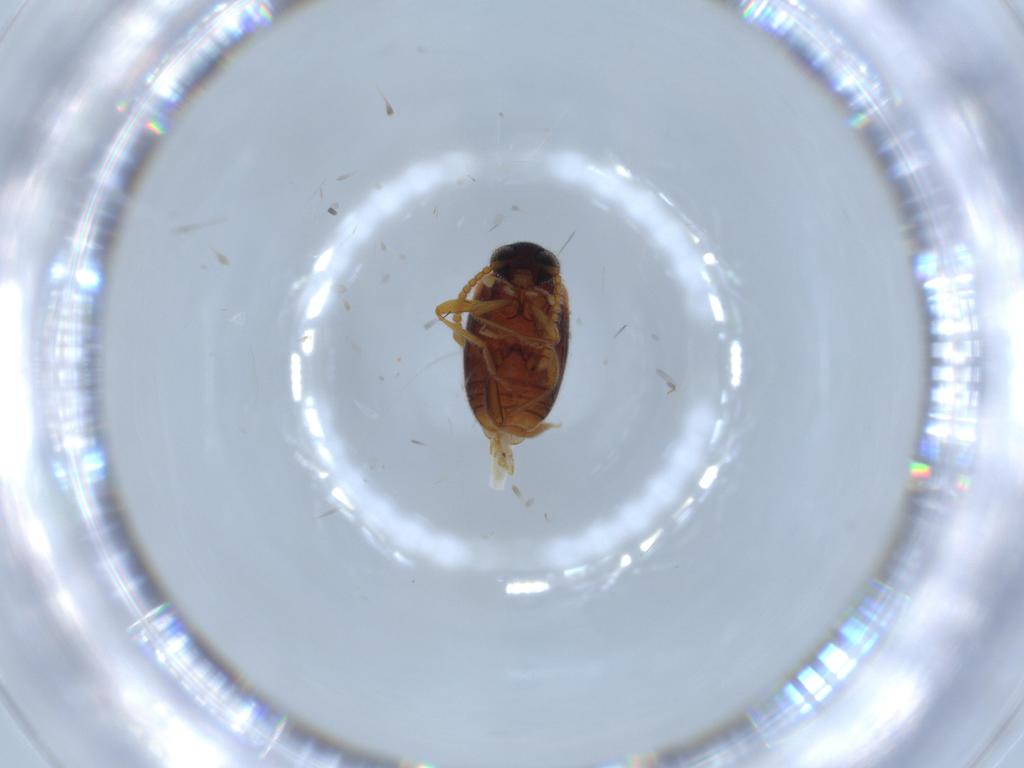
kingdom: Animalia
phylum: Arthropoda
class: Insecta
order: Coleoptera
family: Aderidae
